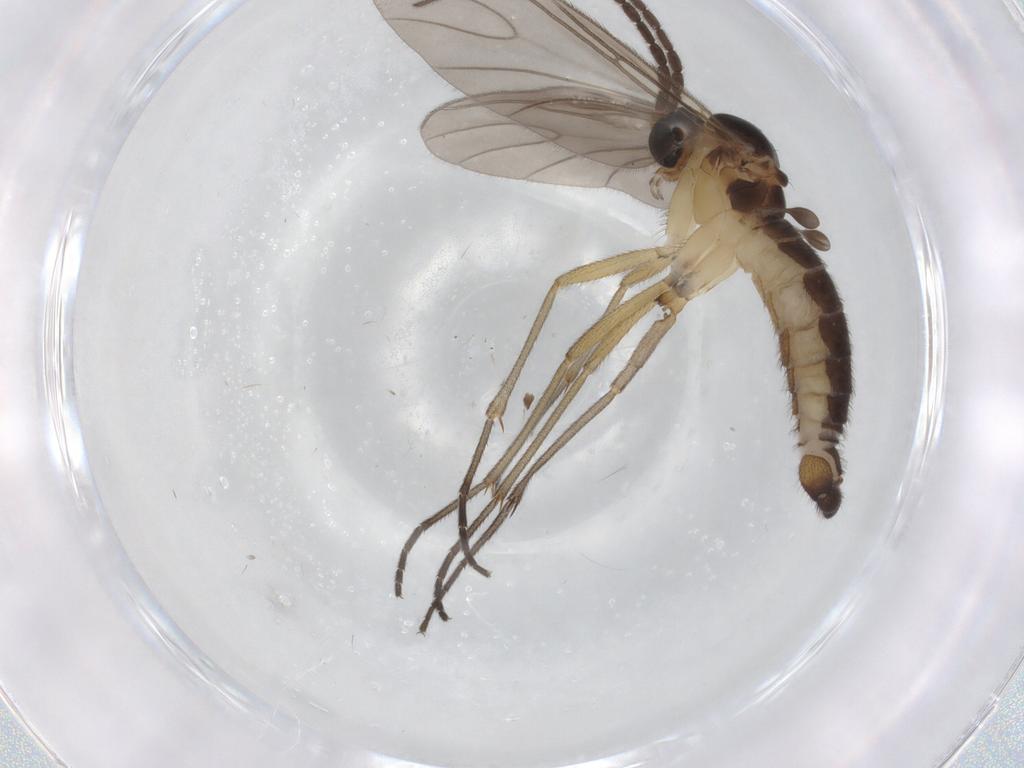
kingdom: Animalia
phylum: Arthropoda
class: Insecta
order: Diptera
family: Sciaridae
